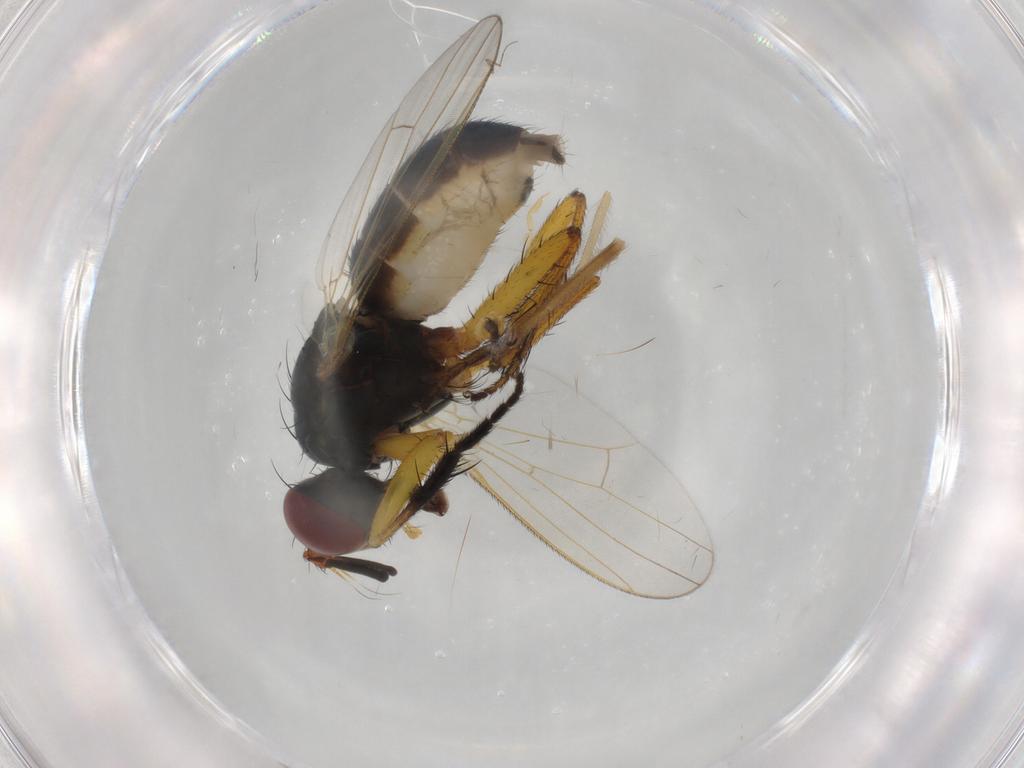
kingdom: Animalia
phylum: Arthropoda
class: Insecta
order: Diptera
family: Chironomidae
